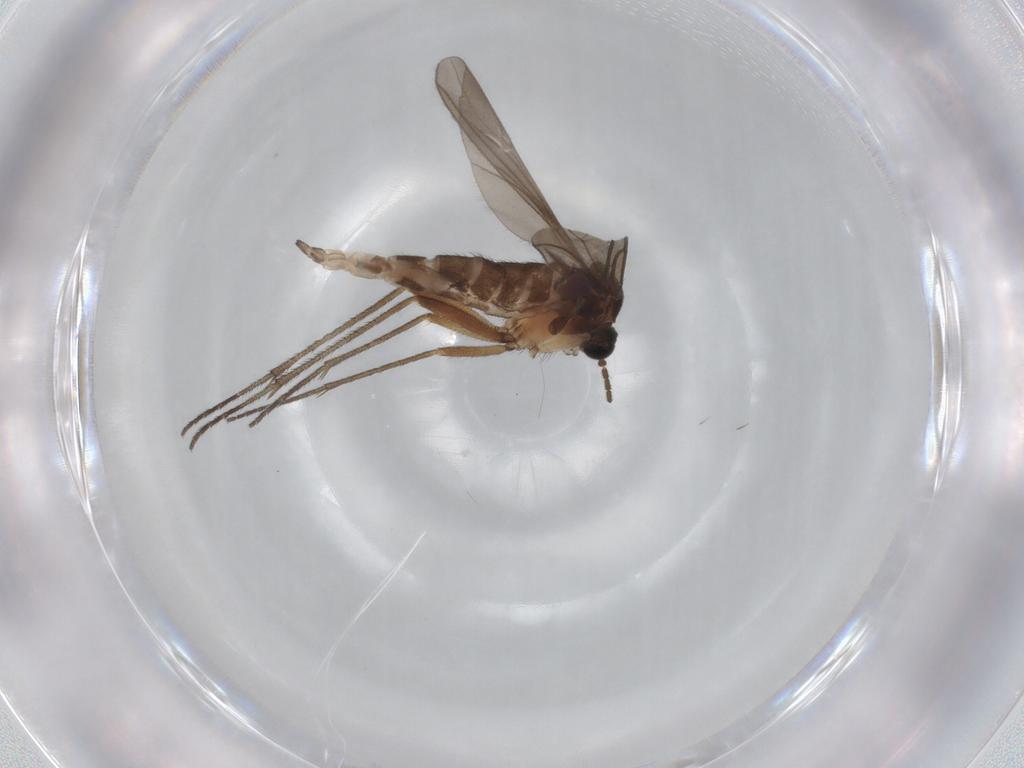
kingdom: Animalia
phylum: Arthropoda
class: Insecta
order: Diptera
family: Sciaridae
